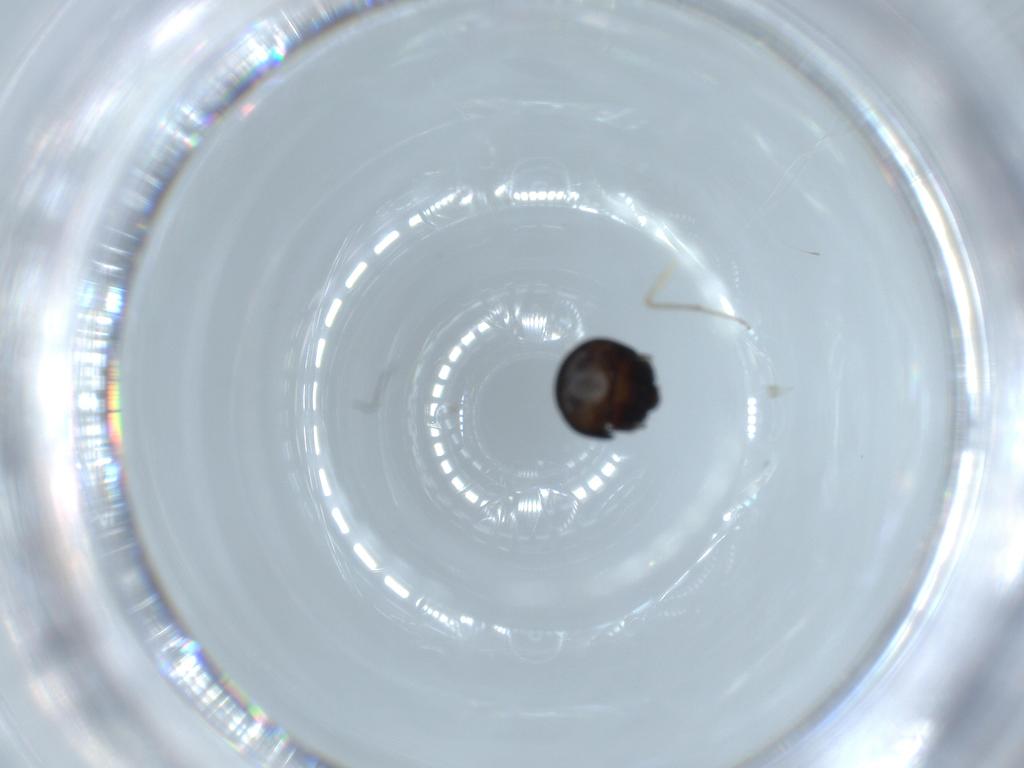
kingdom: Animalia
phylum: Arthropoda
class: Insecta
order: Diptera
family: Chironomidae
